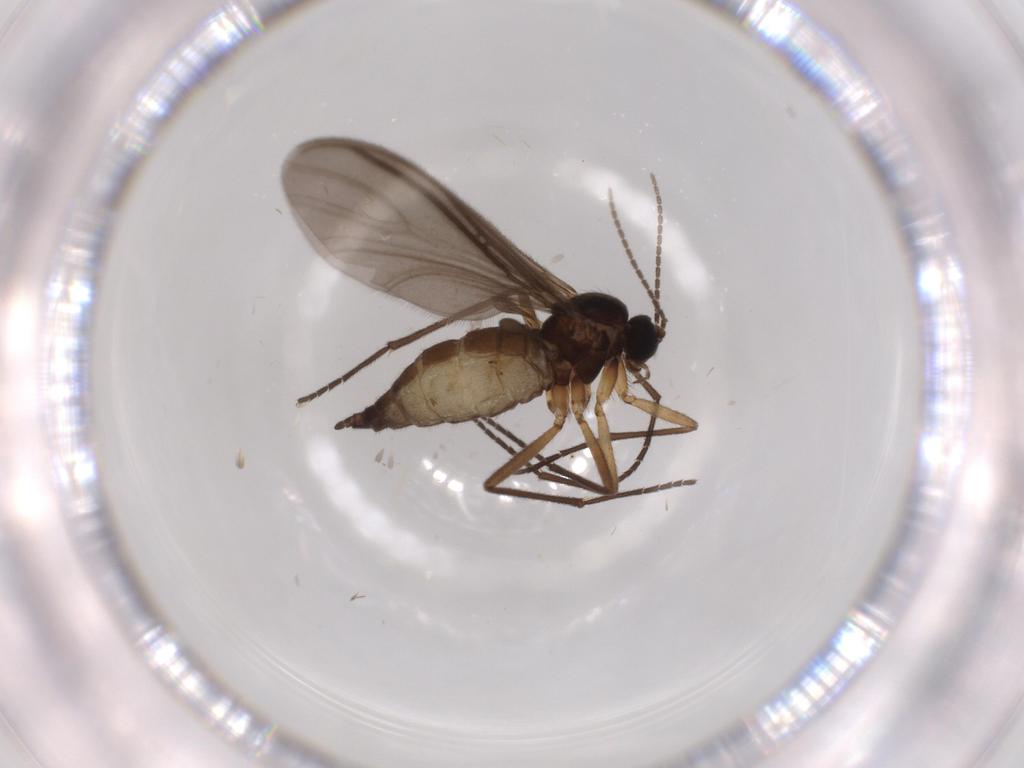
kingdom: Animalia
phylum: Arthropoda
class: Insecta
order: Diptera
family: Sciaridae
